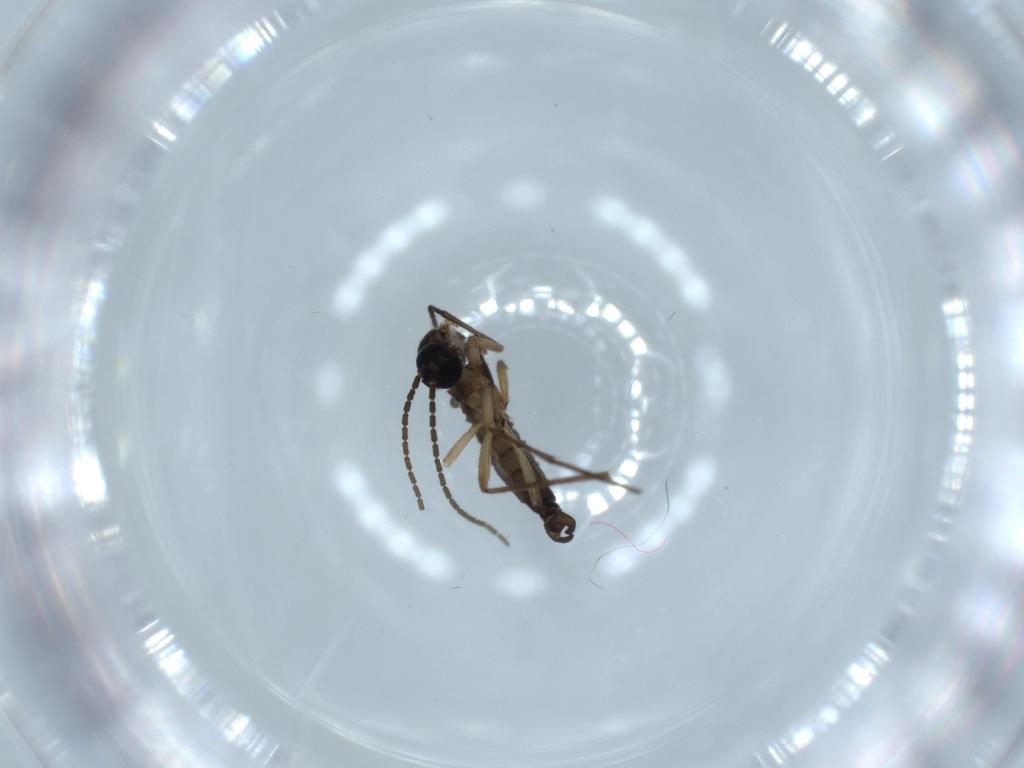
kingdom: Animalia
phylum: Arthropoda
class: Insecta
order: Diptera
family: Sciaridae
